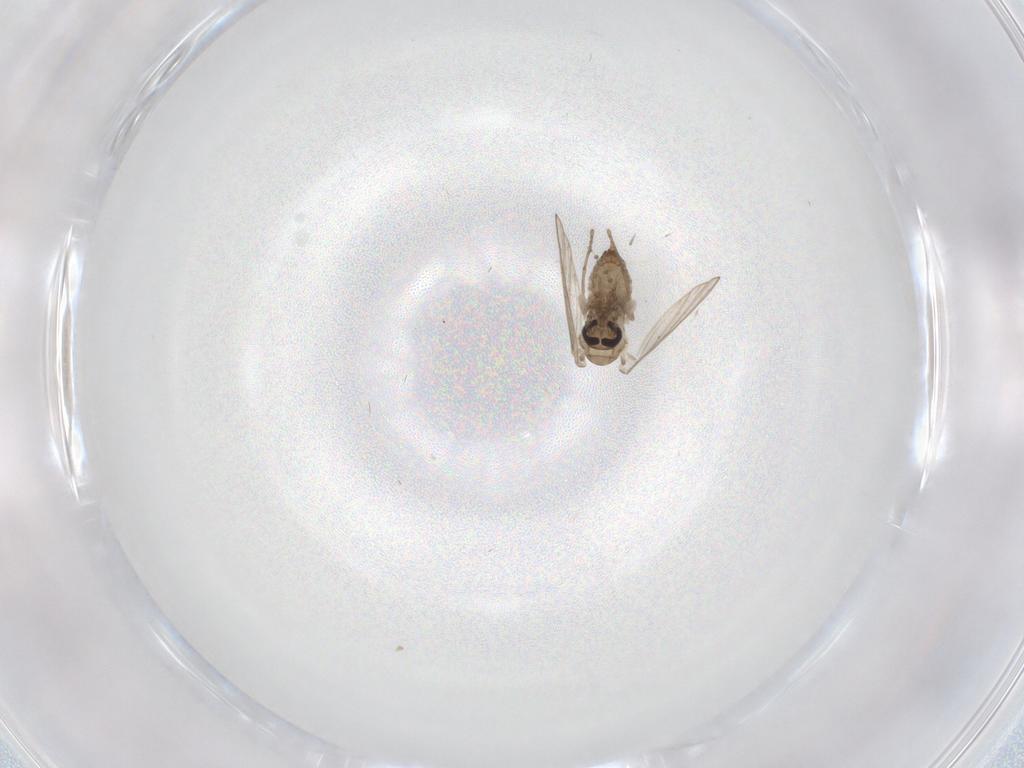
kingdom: Animalia
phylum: Arthropoda
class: Insecta
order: Diptera
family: Psychodidae
